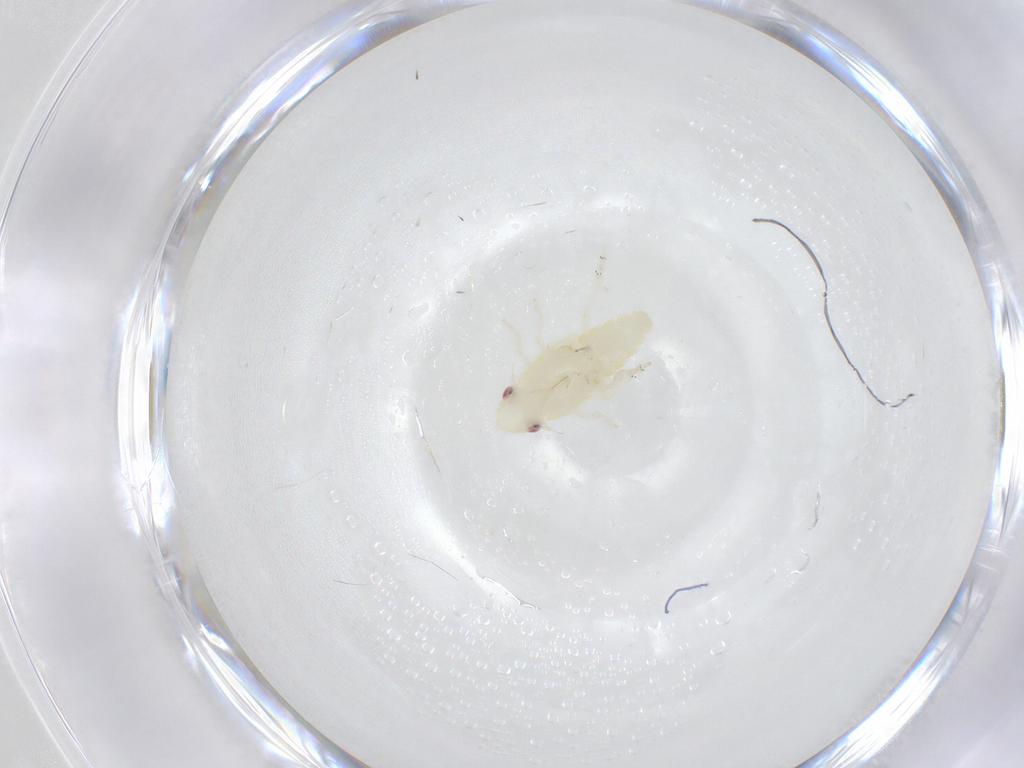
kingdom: Animalia
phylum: Arthropoda
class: Insecta
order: Hemiptera
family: Tropiduchidae
